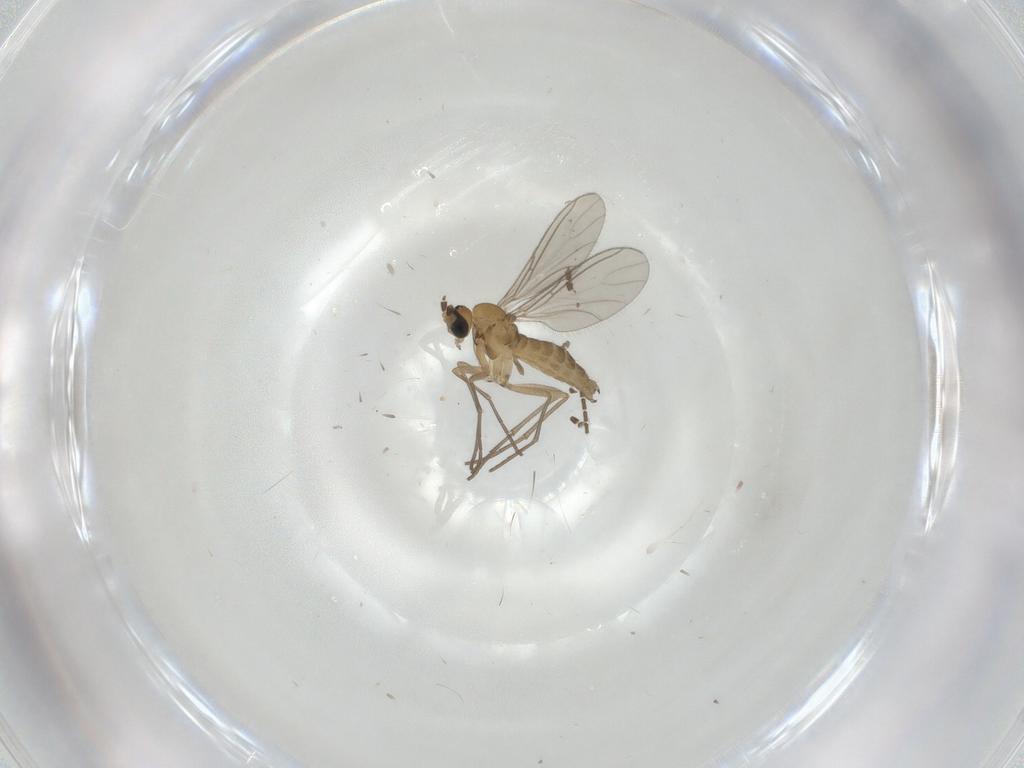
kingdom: Animalia
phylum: Arthropoda
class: Insecta
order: Diptera
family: Sciaridae
